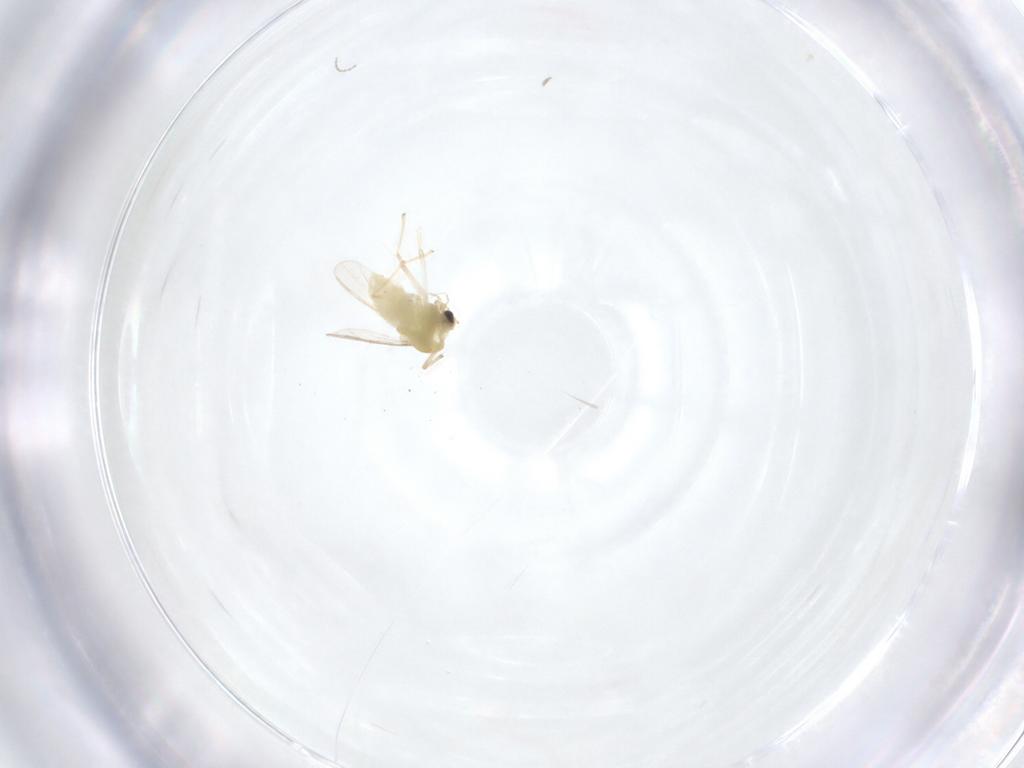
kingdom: Animalia
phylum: Arthropoda
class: Insecta
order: Diptera
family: Chironomidae
